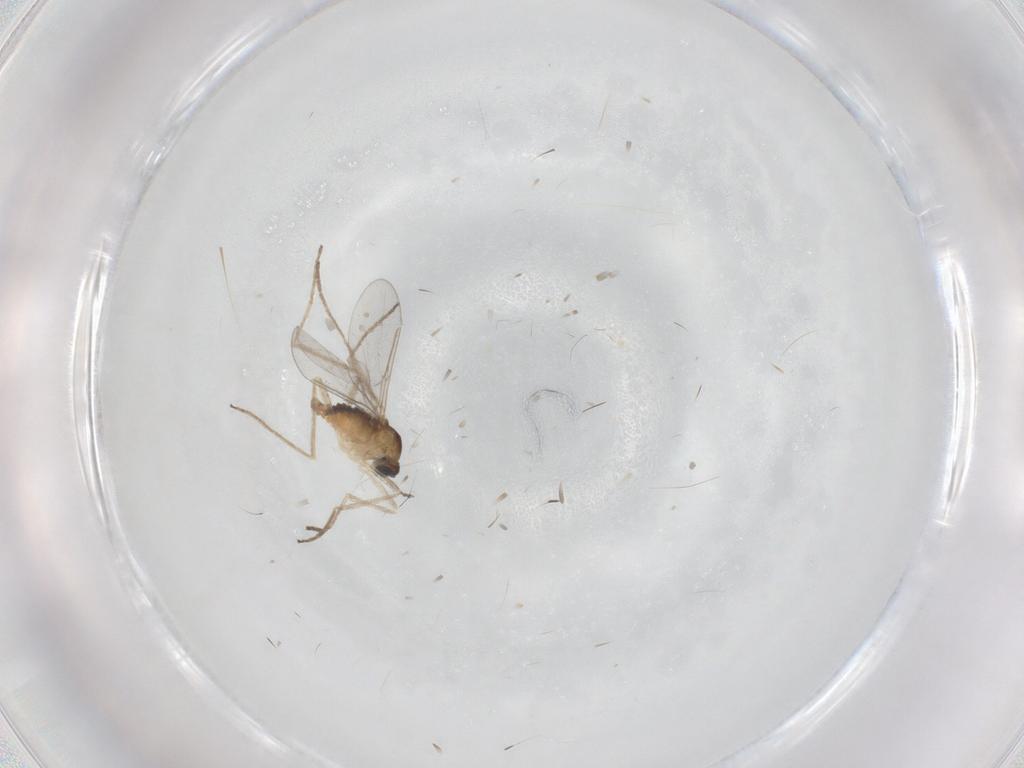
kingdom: Animalia
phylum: Arthropoda
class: Insecta
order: Diptera
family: Cecidomyiidae
